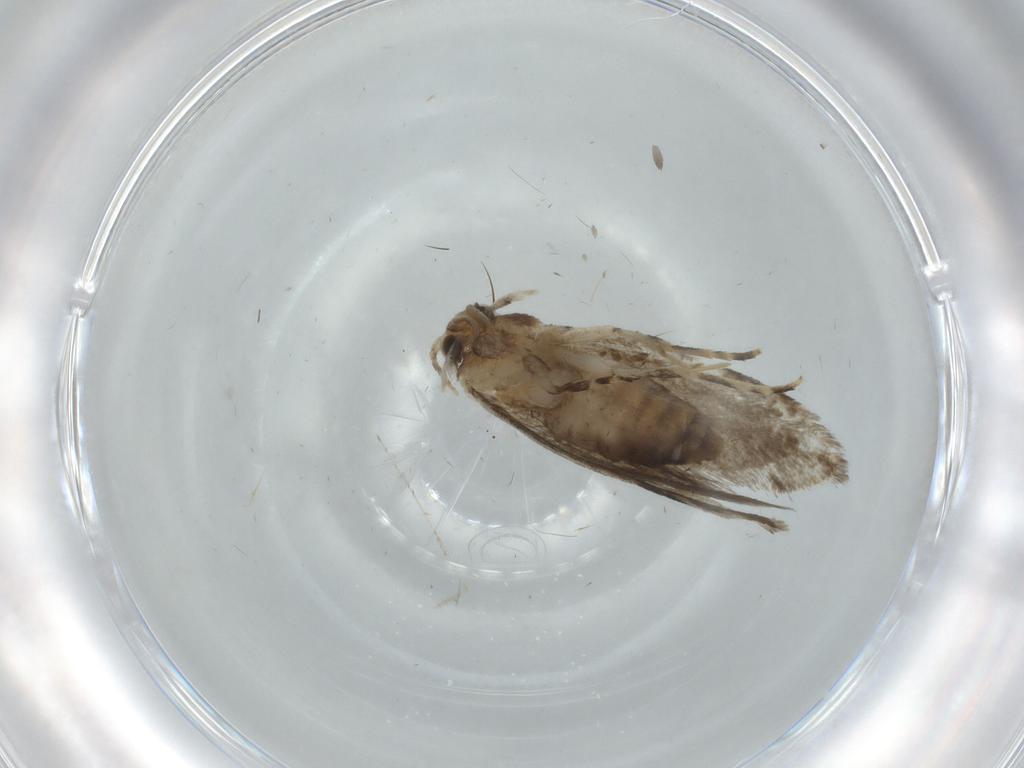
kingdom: Animalia
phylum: Arthropoda
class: Insecta
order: Lepidoptera
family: Tineidae
